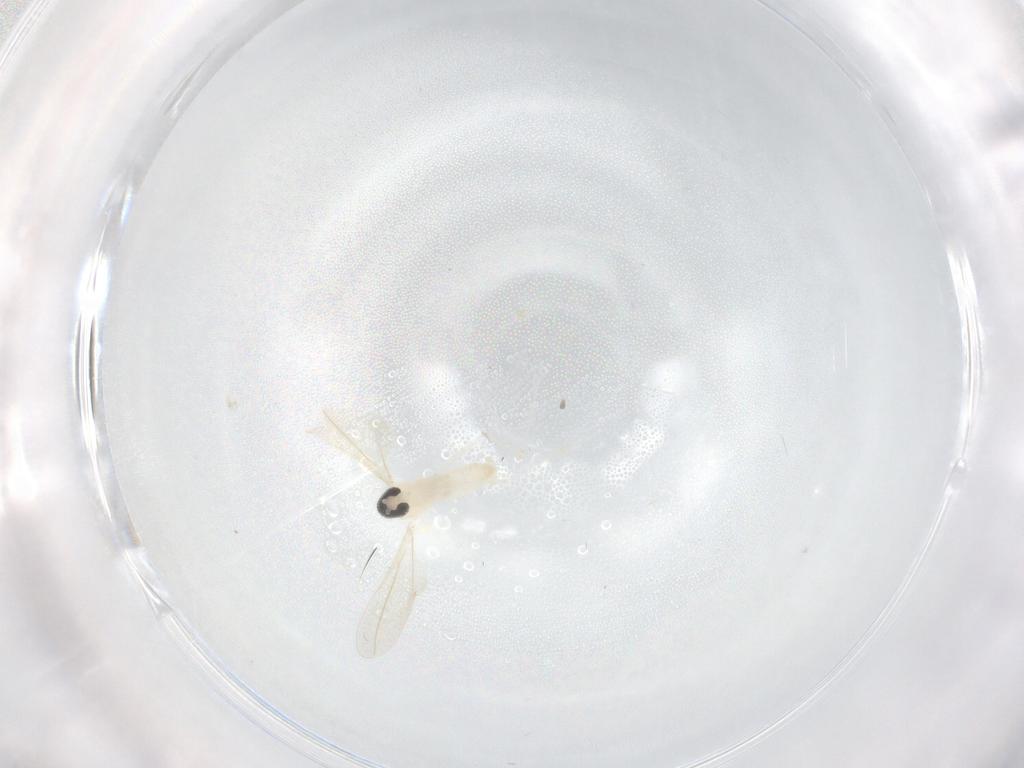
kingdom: Animalia
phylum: Arthropoda
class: Insecta
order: Diptera
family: Cecidomyiidae
